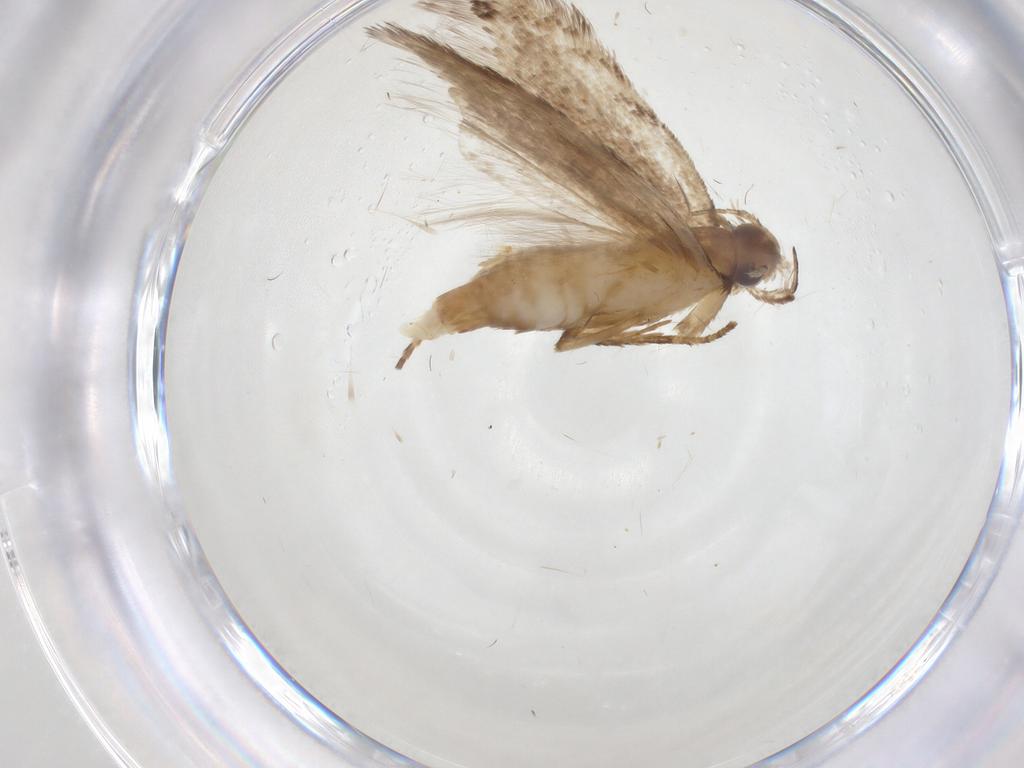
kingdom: Animalia
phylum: Arthropoda
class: Insecta
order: Lepidoptera
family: Gelechiidae
